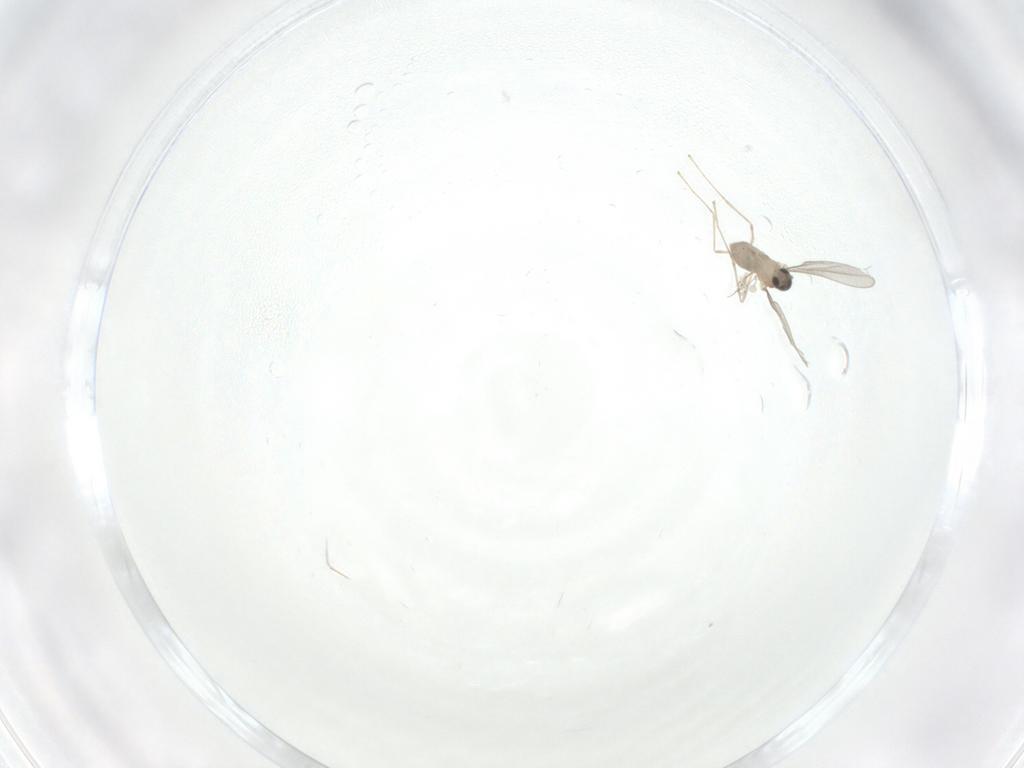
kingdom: Animalia
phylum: Arthropoda
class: Insecta
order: Diptera
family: Cecidomyiidae
